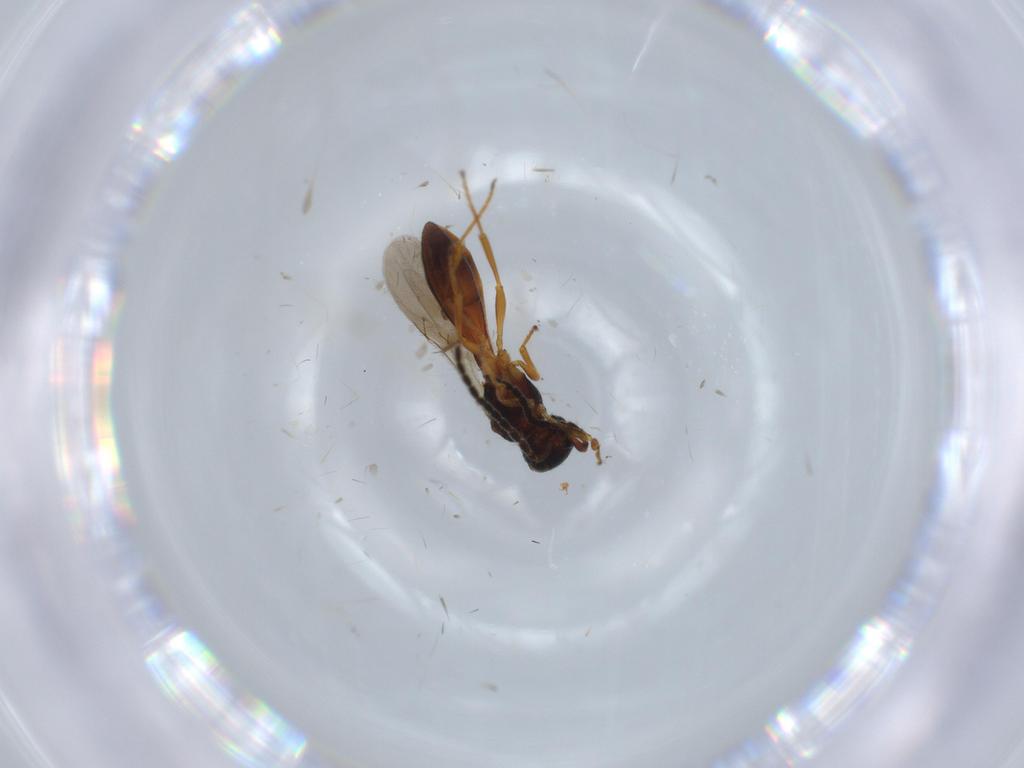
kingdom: Animalia
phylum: Arthropoda
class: Insecta
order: Hymenoptera
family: Scelionidae
